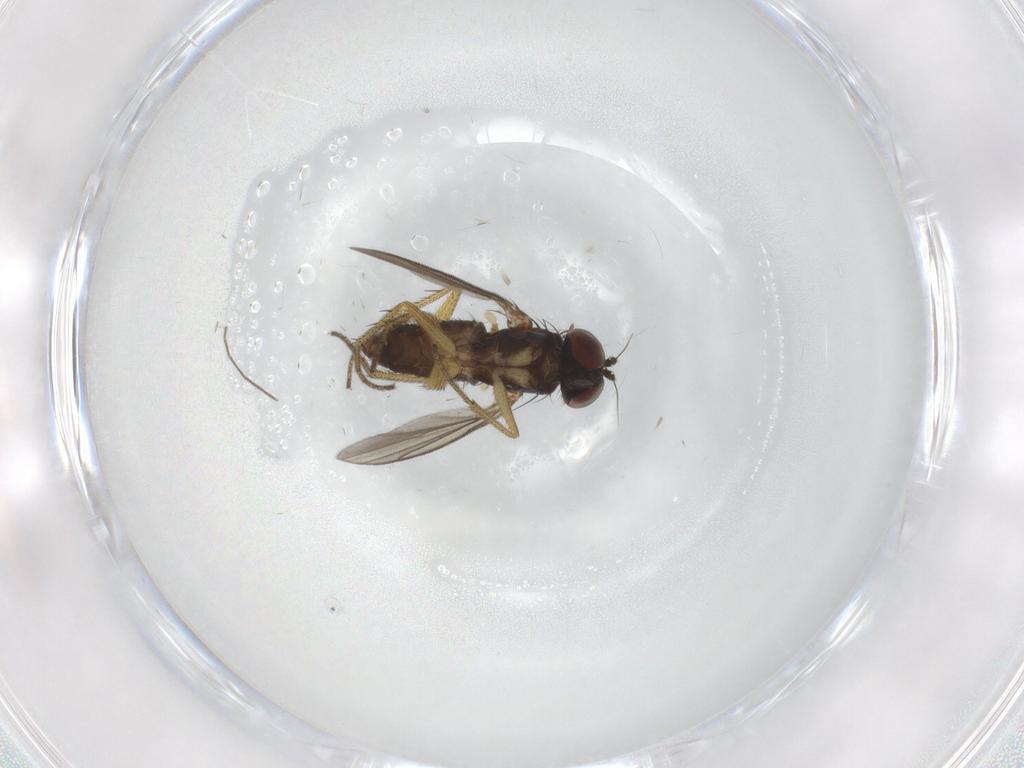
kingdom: Animalia
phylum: Arthropoda
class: Insecta
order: Diptera
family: Chironomidae
